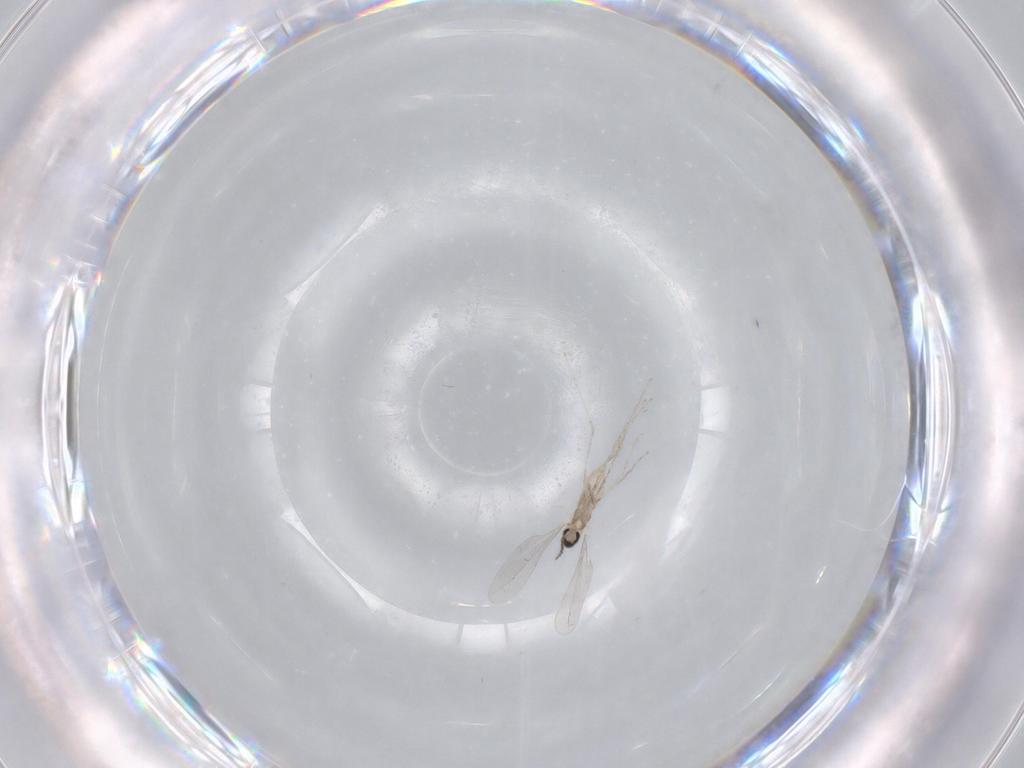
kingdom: Animalia
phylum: Arthropoda
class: Insecta
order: Diptera
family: Cecidomyiidae
